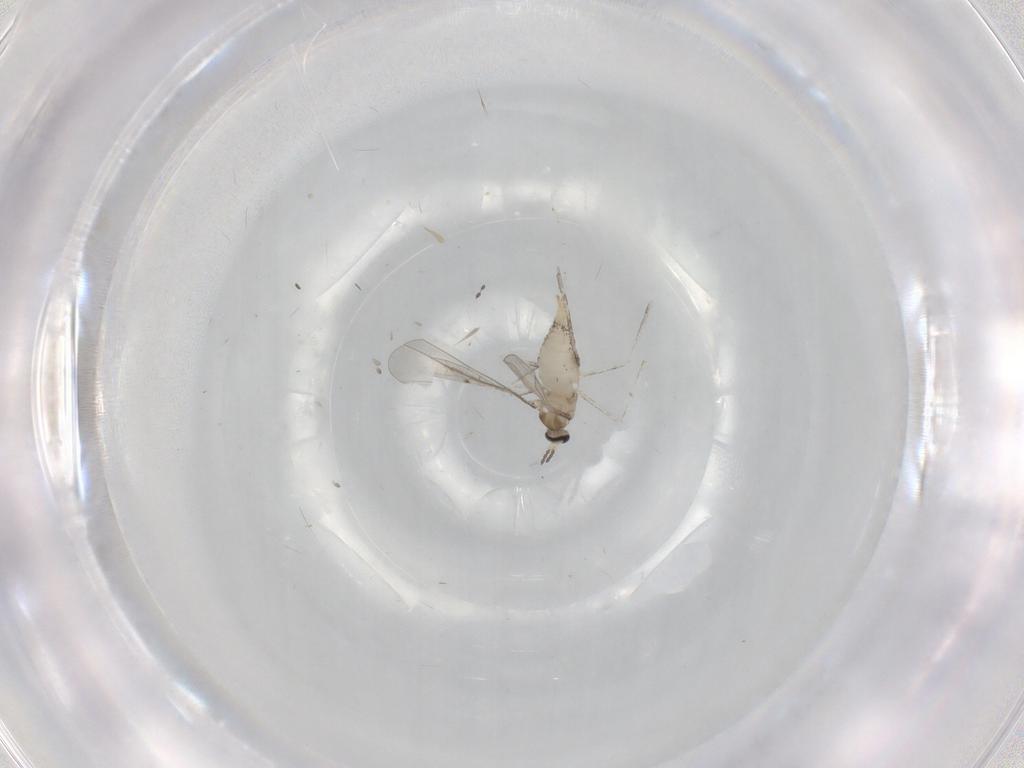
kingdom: Animalia
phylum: Arthropoda
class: Insecta
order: Diptera
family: Cecidomyiidae
